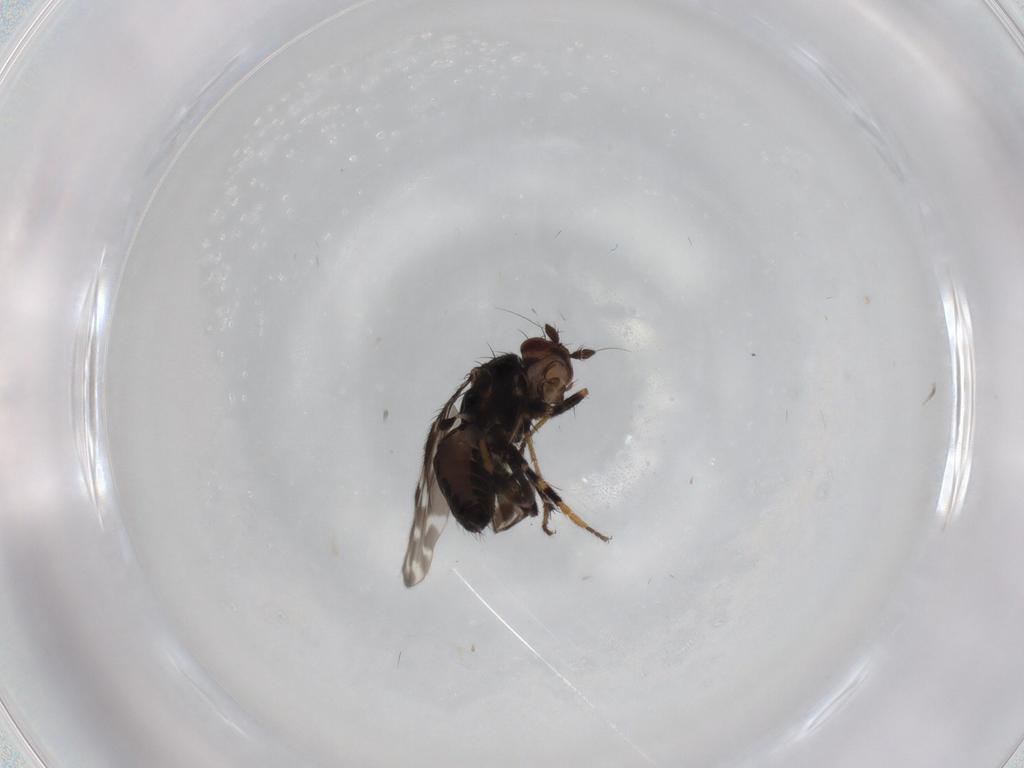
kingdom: Animalia
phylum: Arthropoda
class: Insecta
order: Diptera
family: Sphaeroceridae
